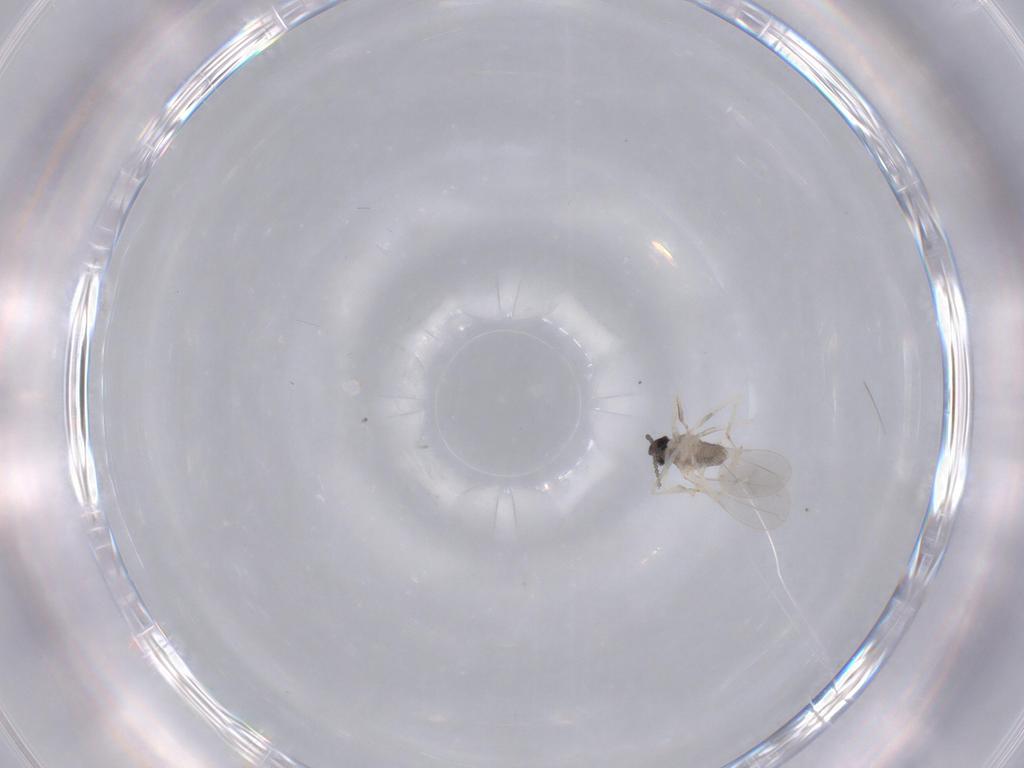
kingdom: Animalia
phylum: Arthropoda
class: Insecta
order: Diptera
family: Cecidomyiidae
